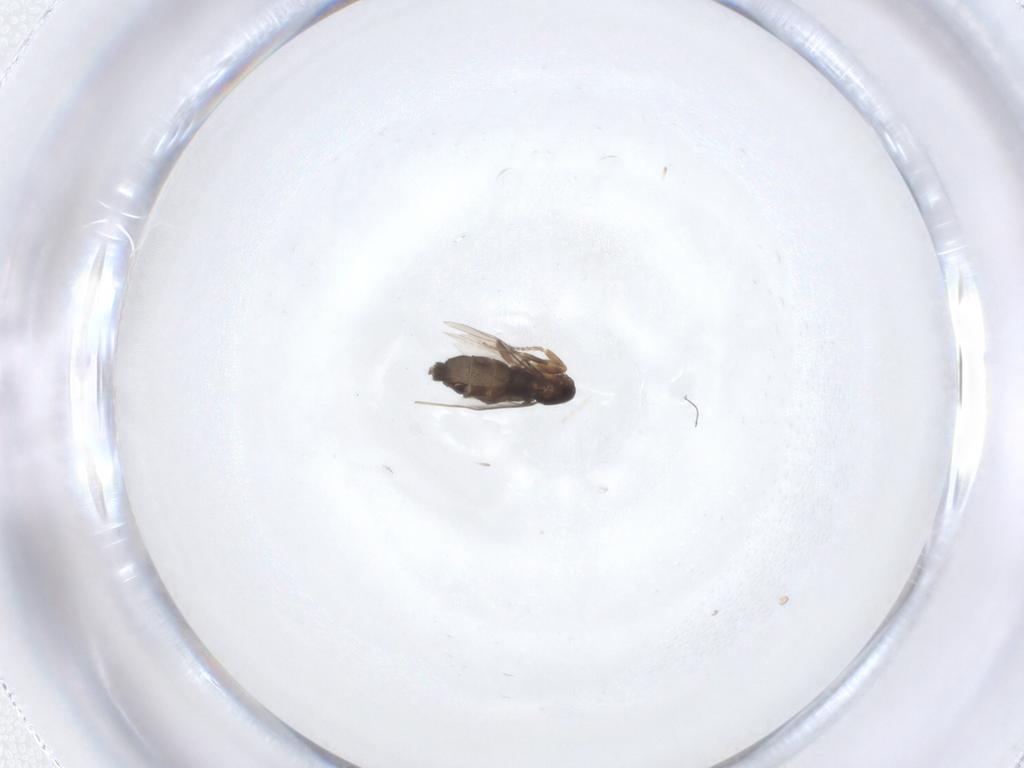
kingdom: Animalia
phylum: Arthropoda
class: Insecta
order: Diptera
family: Phoridae
